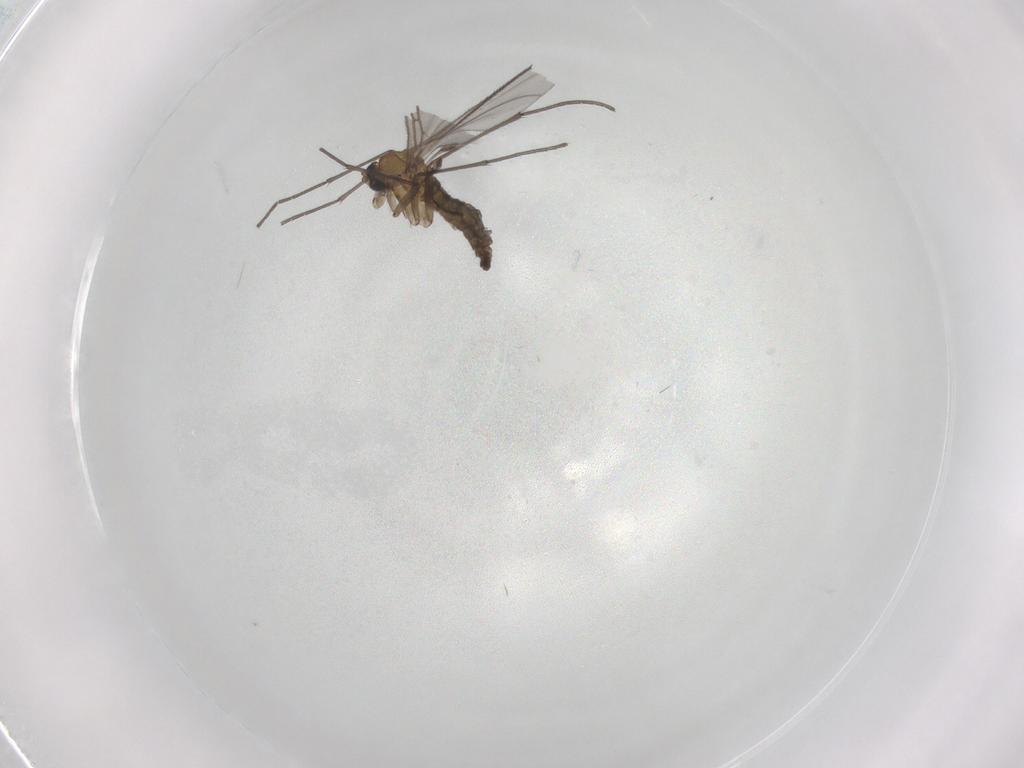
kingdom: Animalia
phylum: Arthropoda
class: Insecta
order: Diptera
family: Sciaridae
